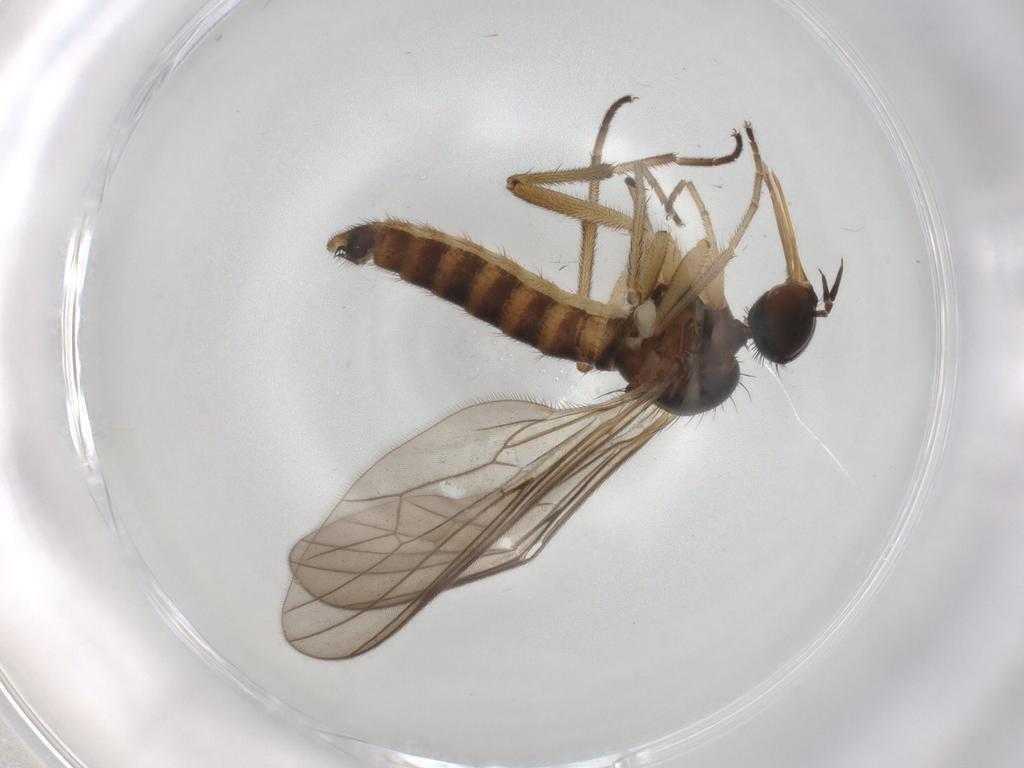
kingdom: Animalia
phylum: Arthropoda
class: Insecta
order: Diptera
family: Empididae
